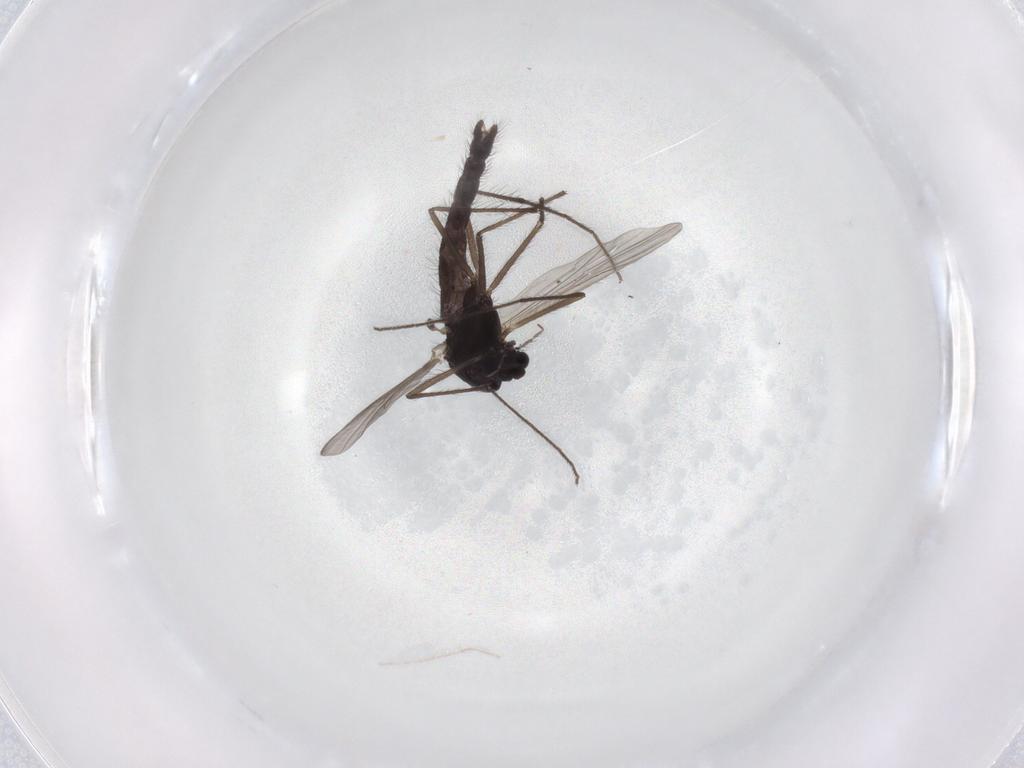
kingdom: Animalia
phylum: Arthropoda
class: Insecta
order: Diptera
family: Chironomidae
